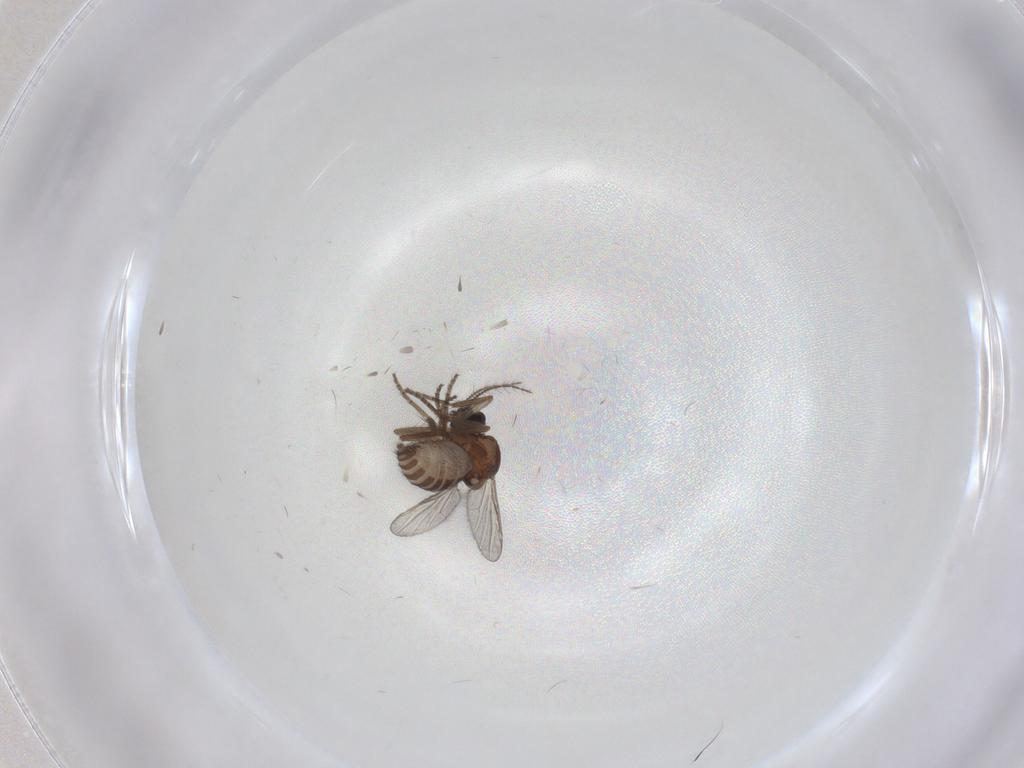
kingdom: Animalia
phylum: Arthropoda
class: Insecta
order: Diptera
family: Ceratopogonidae
